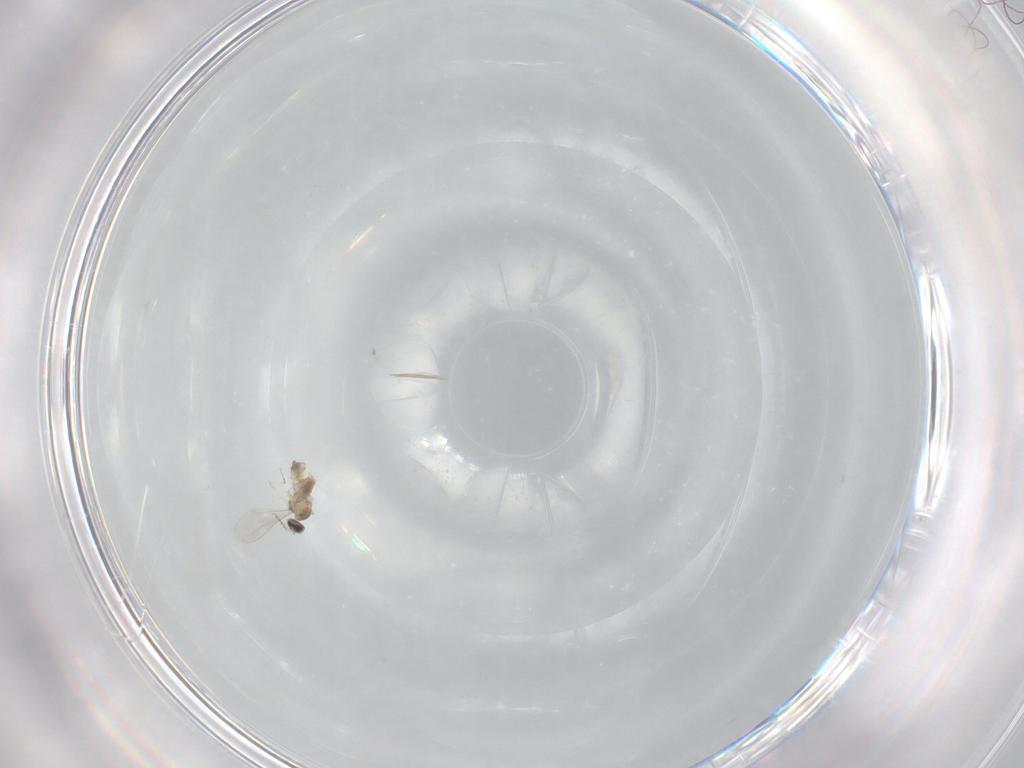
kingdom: Animalia
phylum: Arthropoda
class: Insecta
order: Diptera
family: Cecidomyiidae
